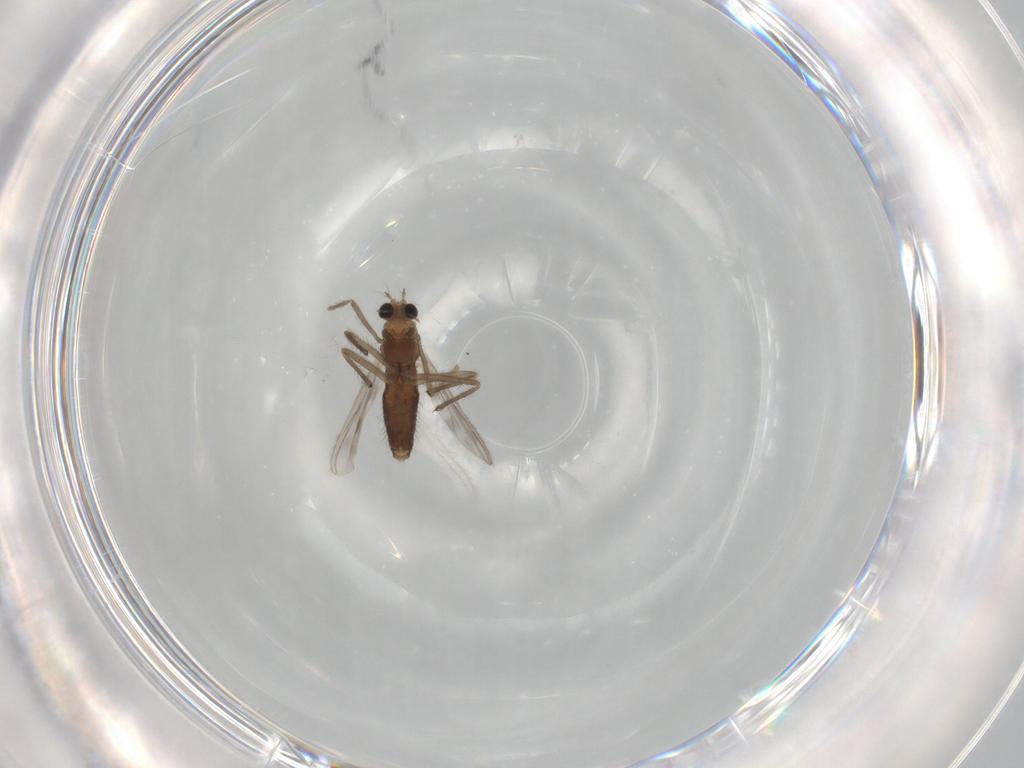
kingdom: Animalia
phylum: Arthropoda
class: Insecta
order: Diptera
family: Chironomidae
